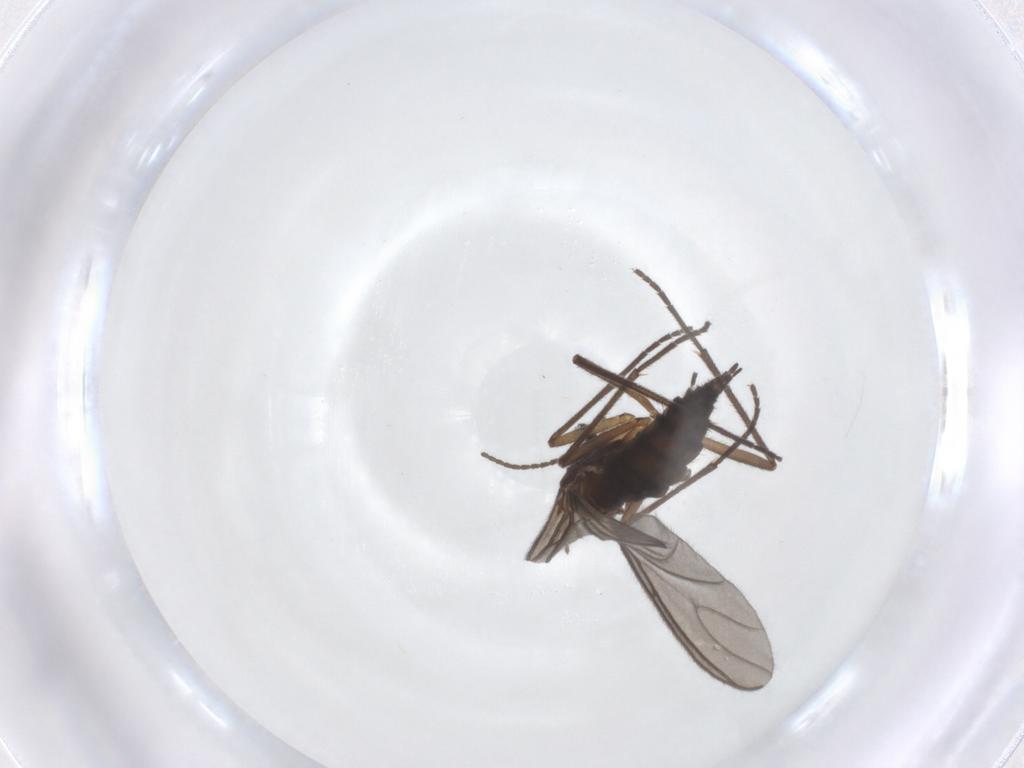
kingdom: Animalia
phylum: Arthropoda
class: Insecta
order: Diptera
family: Sciaridae
